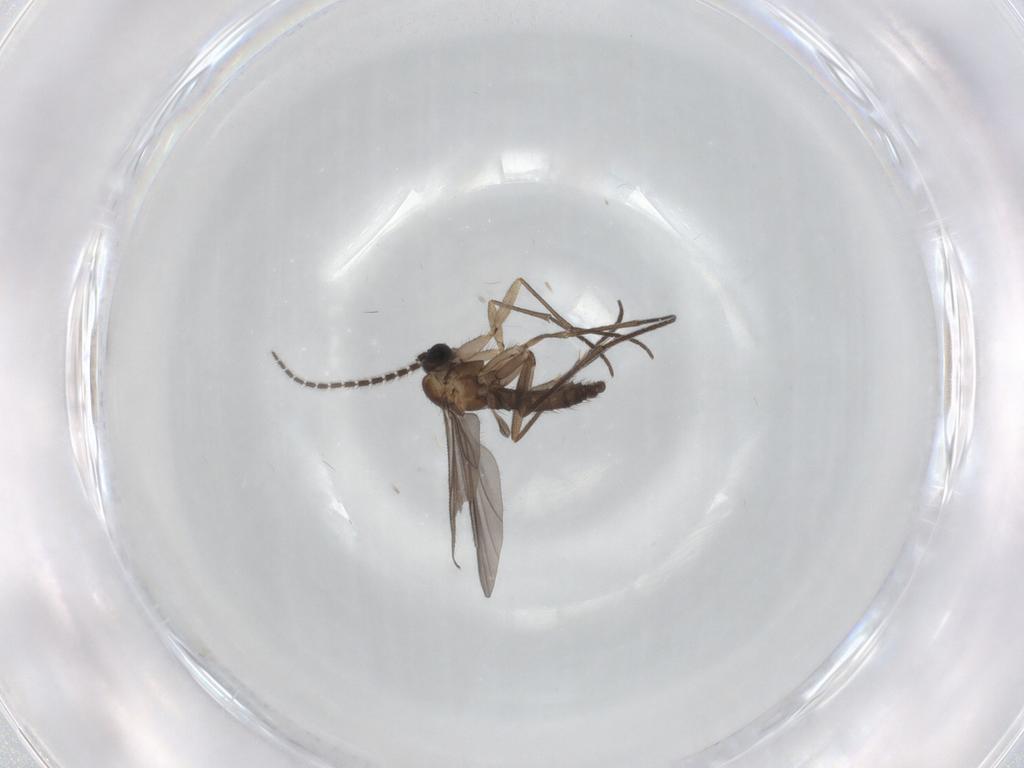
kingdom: Animalia
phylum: Arthropoda
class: Insecta
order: Diptera
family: Sciaridae
